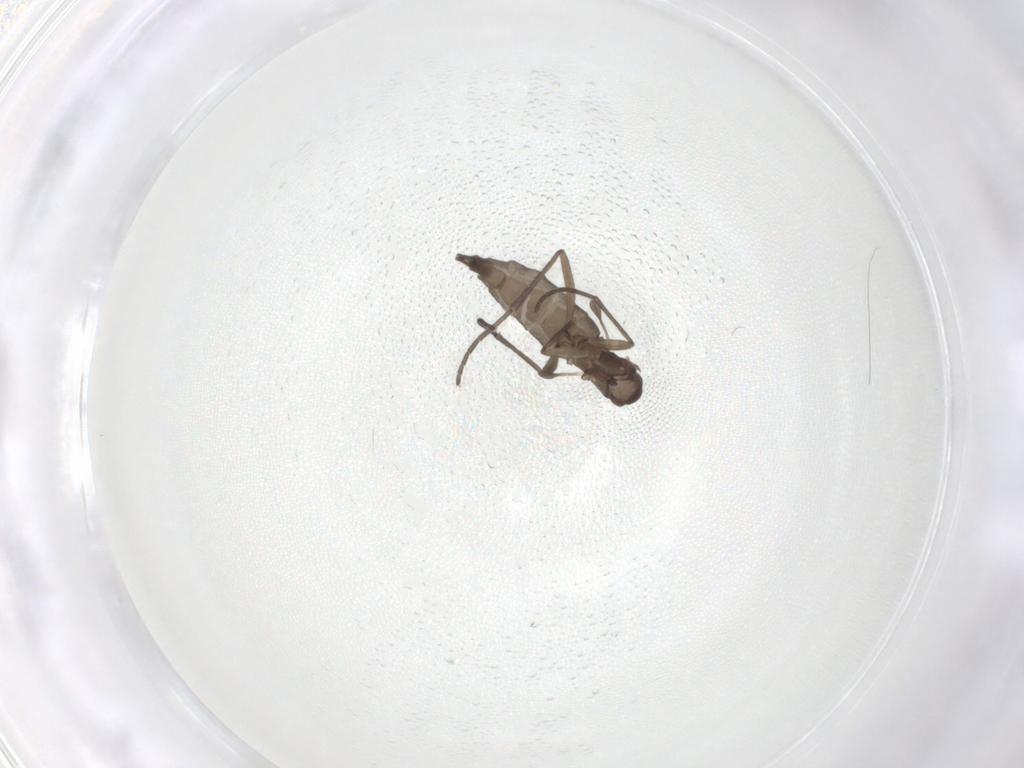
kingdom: Animalia
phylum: Arthropoda
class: Insecta
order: Diptera
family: Sciaridae
